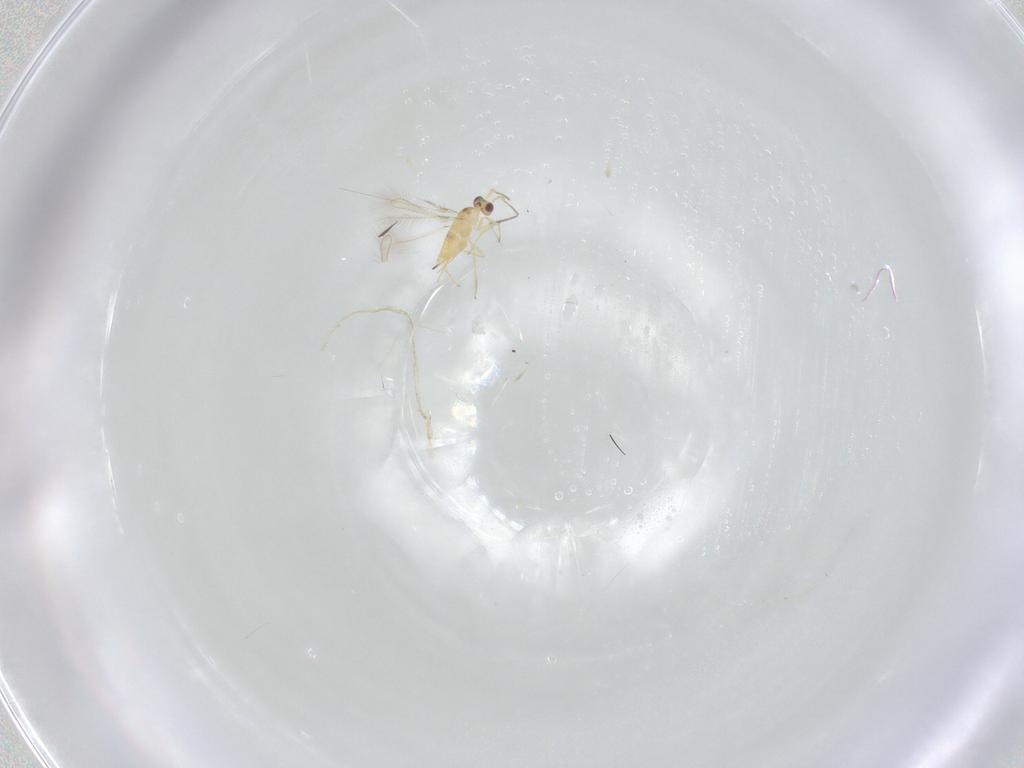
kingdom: Animalia
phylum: Arthropoda
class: Insecta
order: Hymenoptera
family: Mymaridae
